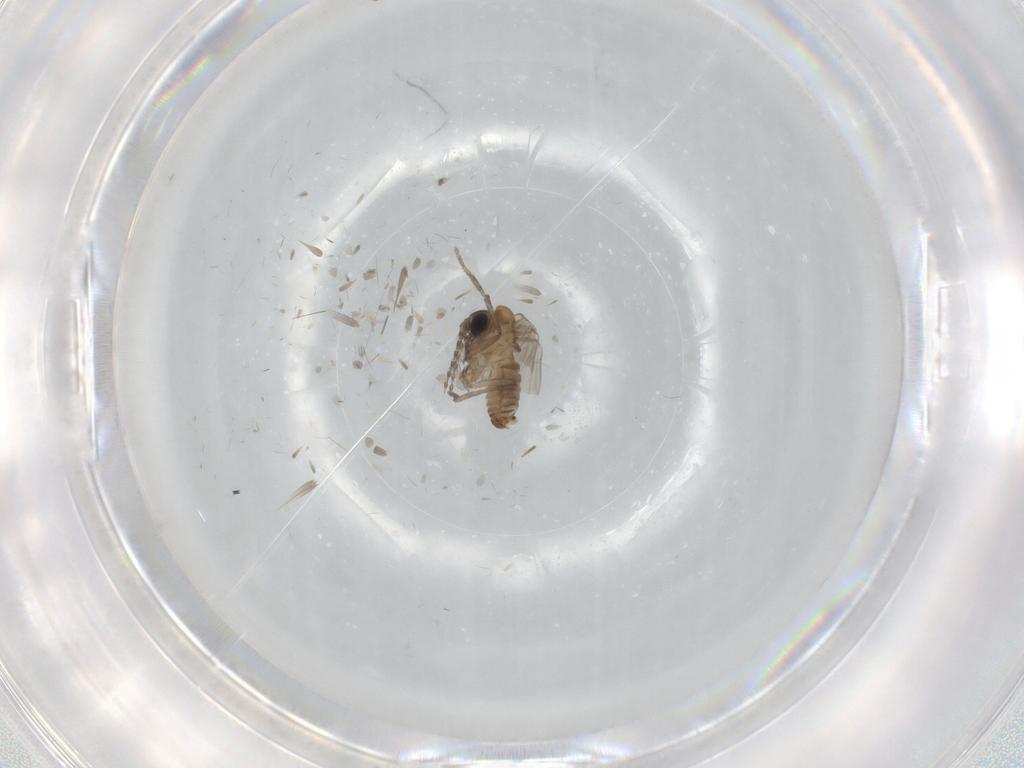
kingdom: Animalia
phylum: Arthropoda
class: Insecta
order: Diptera
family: Psychodidae
